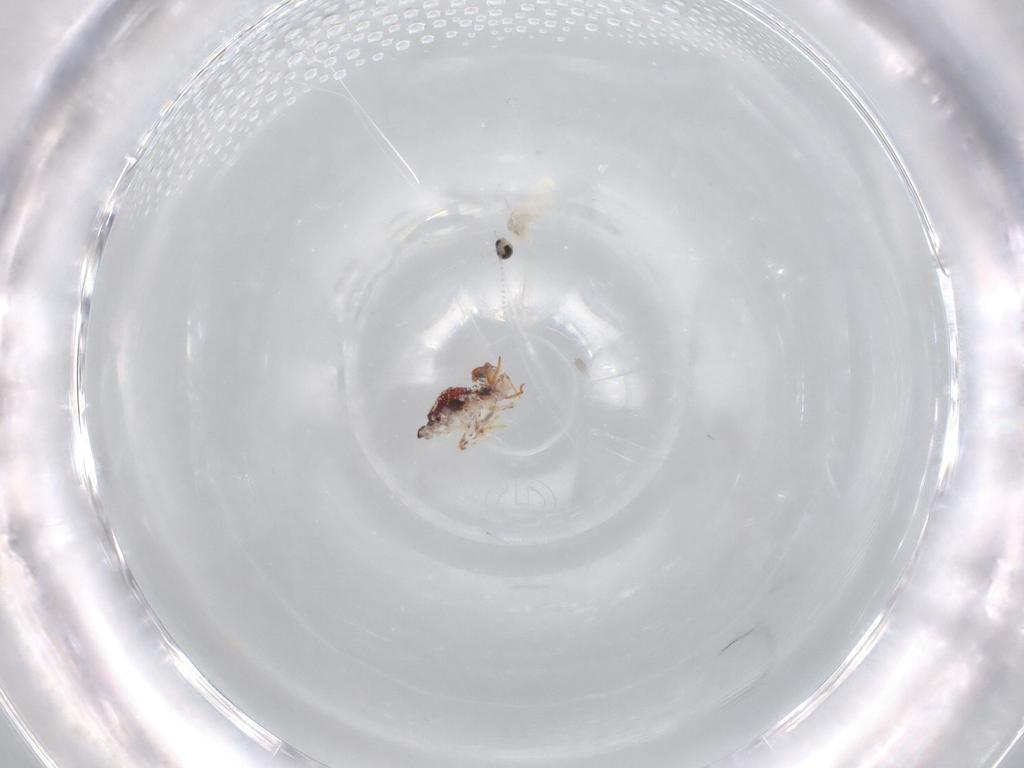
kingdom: Animalia
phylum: Arthropoda
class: Collembola
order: Symphypleona
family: Bourletiellidae
